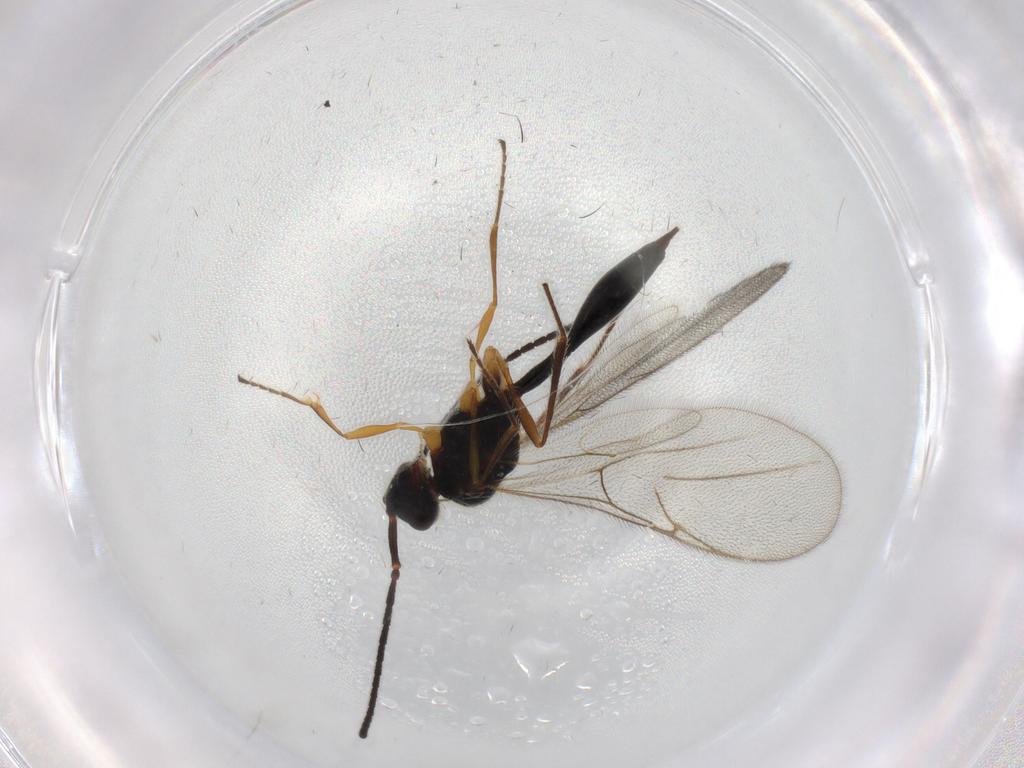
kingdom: Animalia
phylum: Arthropoda
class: Insecta
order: Hymenoptera
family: Diapriidae
